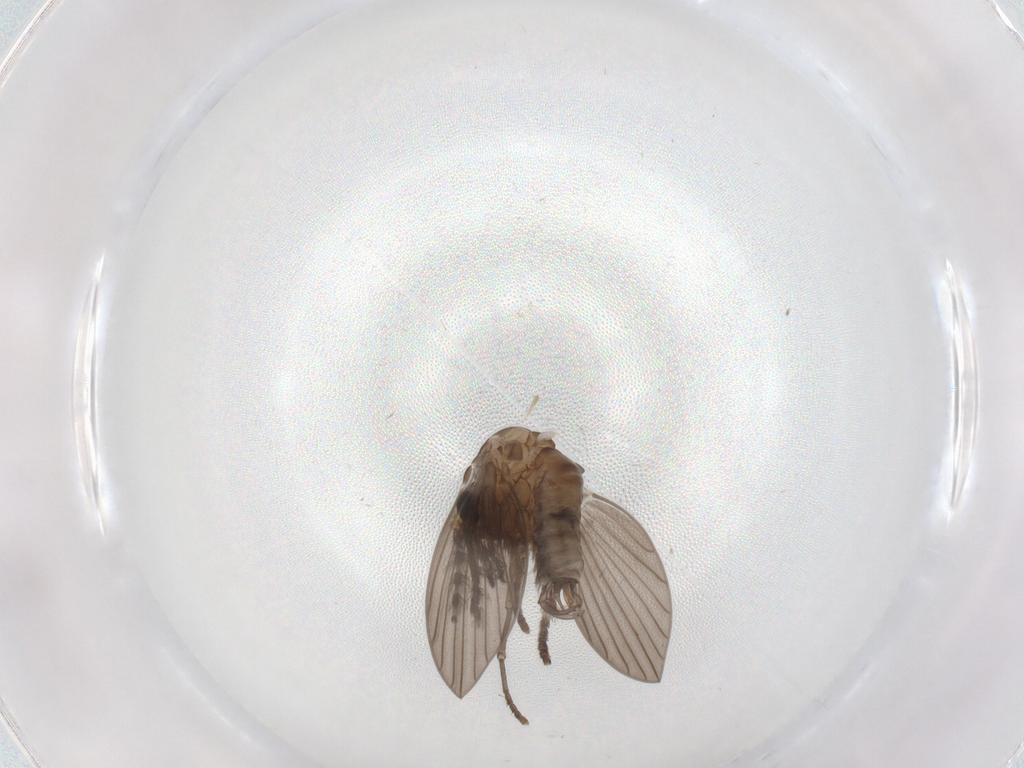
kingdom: Animalia
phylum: Arthropoda
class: Insecta
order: Diptera
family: Psychodidae
